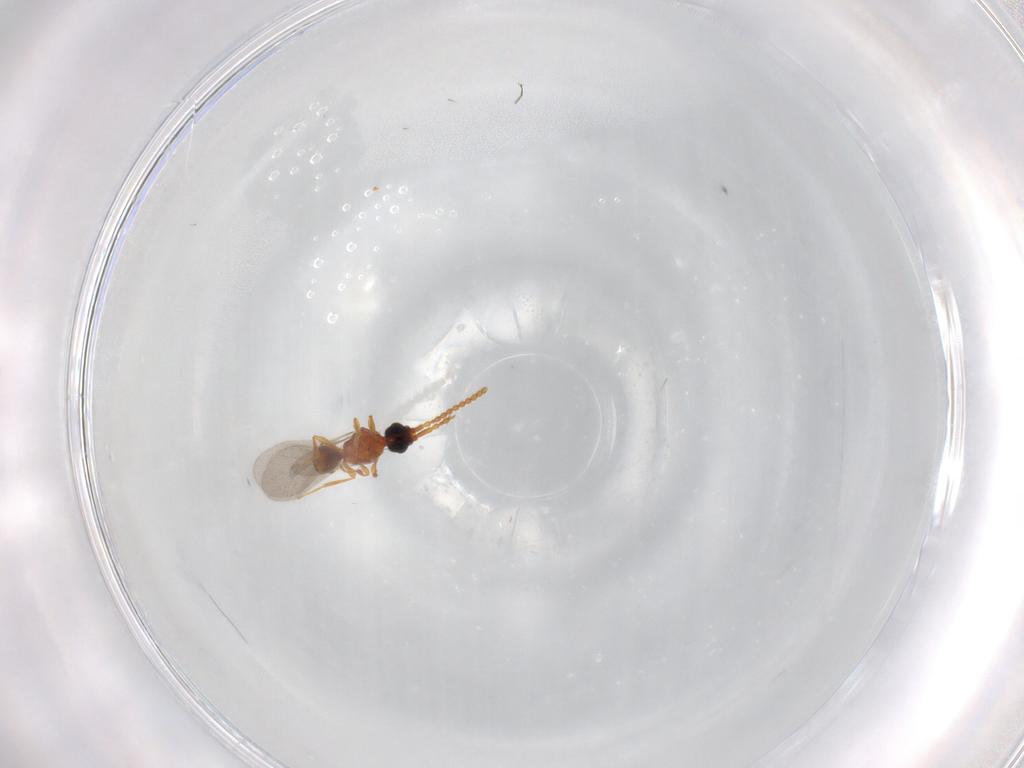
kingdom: Animalia
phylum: Arthropoda
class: Insecta
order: Hymenoptera
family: Diapriidae
